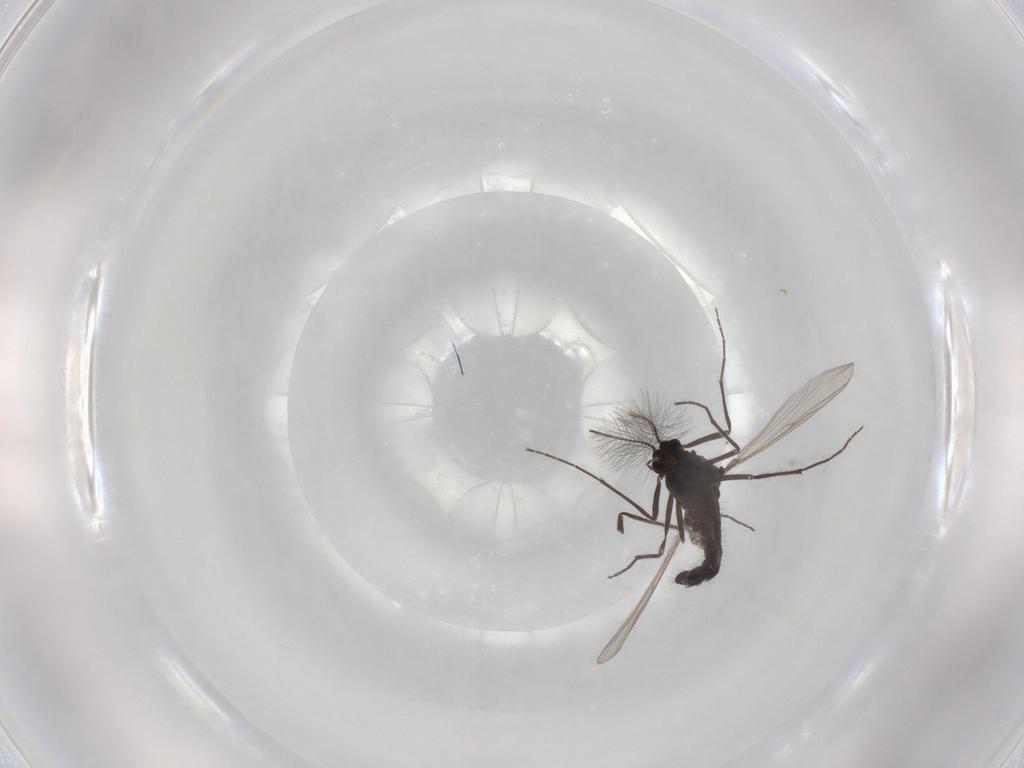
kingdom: Animalia
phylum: Arthropoda
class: Insecta
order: Diptera
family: Chironomidae
